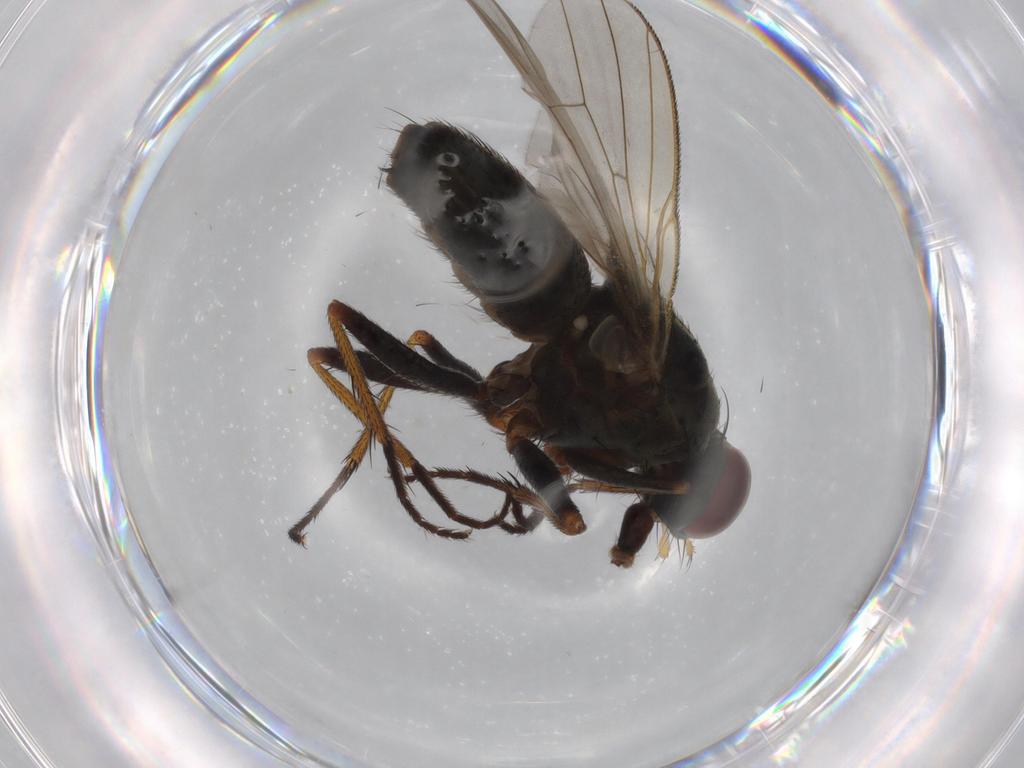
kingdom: Animalia
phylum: Arthropoda
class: Insecta
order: Diptera
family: Muscidae
